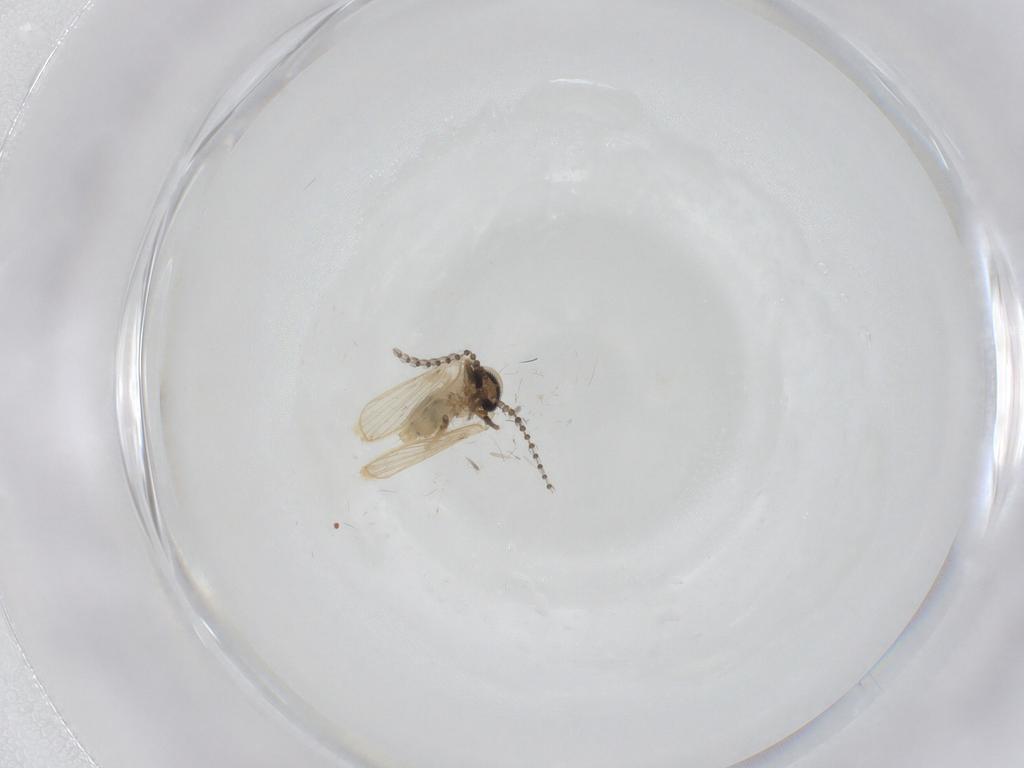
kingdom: Animalia
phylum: Arthropoda
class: Insecta
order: Diptera
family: Psychodidae
